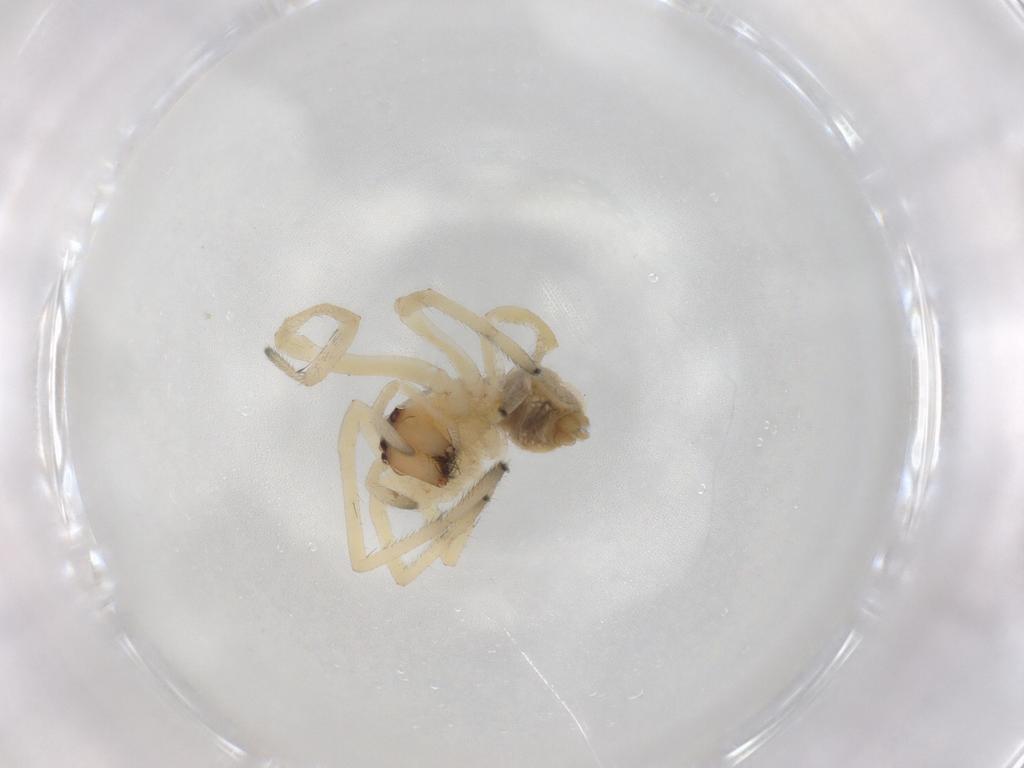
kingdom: Animalia
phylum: Arthropoda
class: Arachnida
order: Araneae
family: Cheiracanthiidae
